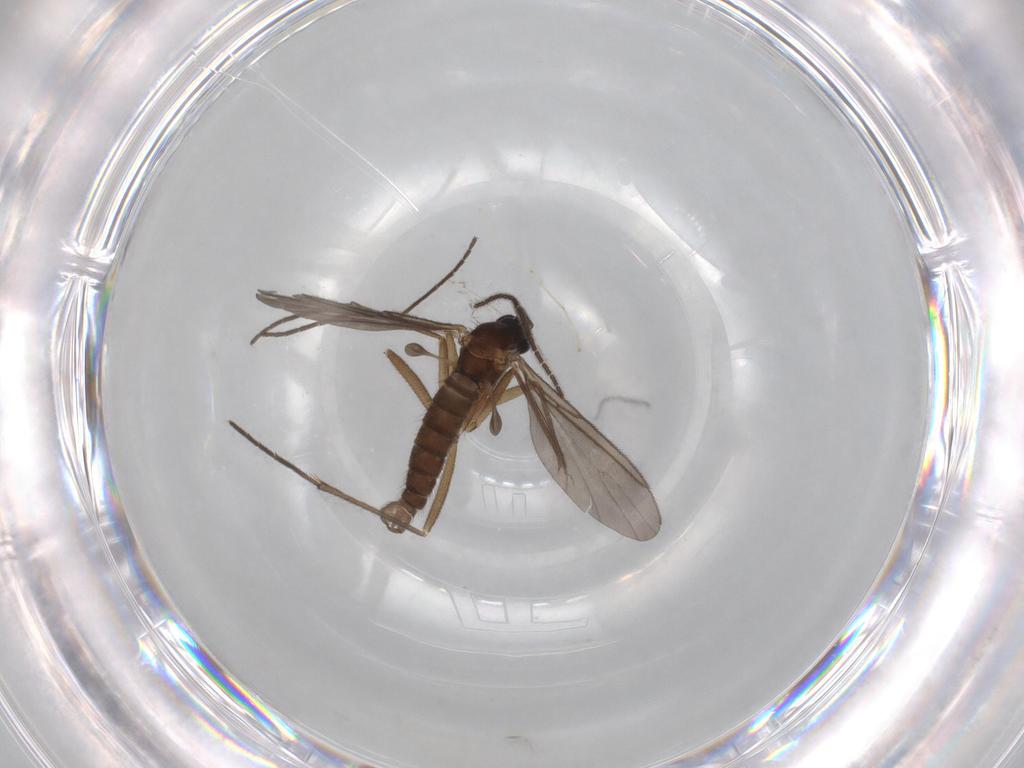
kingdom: Animalia
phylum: Arthropoda
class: Insecta
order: Diptera
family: Cecidomyiidae
